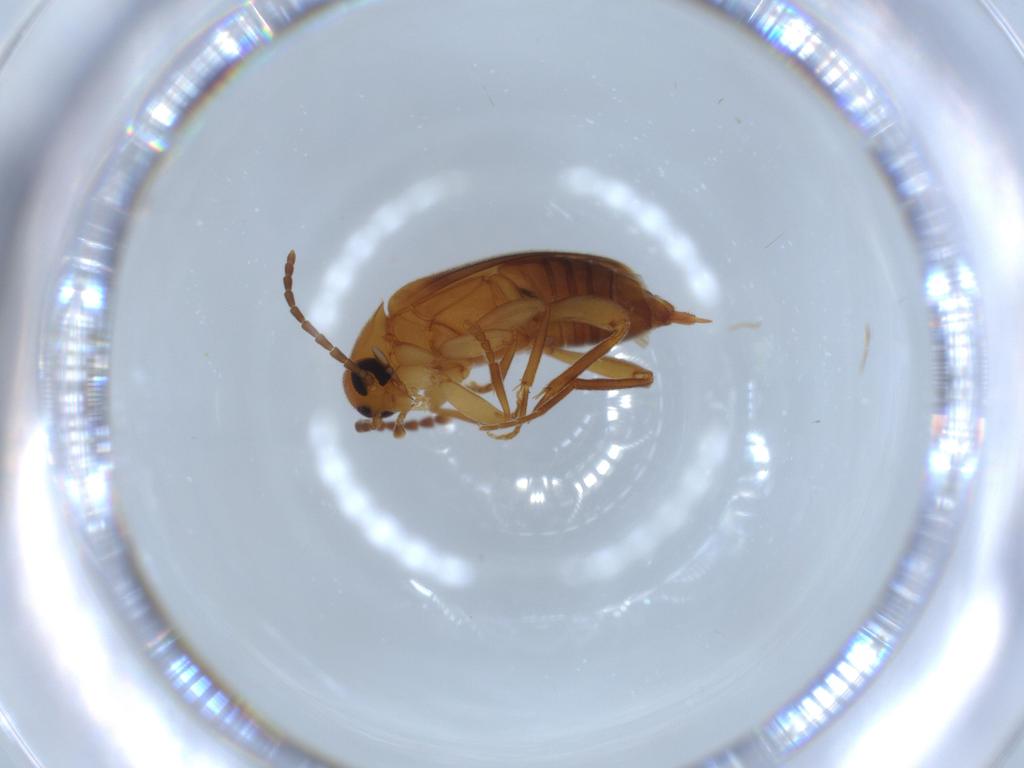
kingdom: Animalia
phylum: Arthropoda
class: Insecta
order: Coleoptera
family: Scraptiidae
